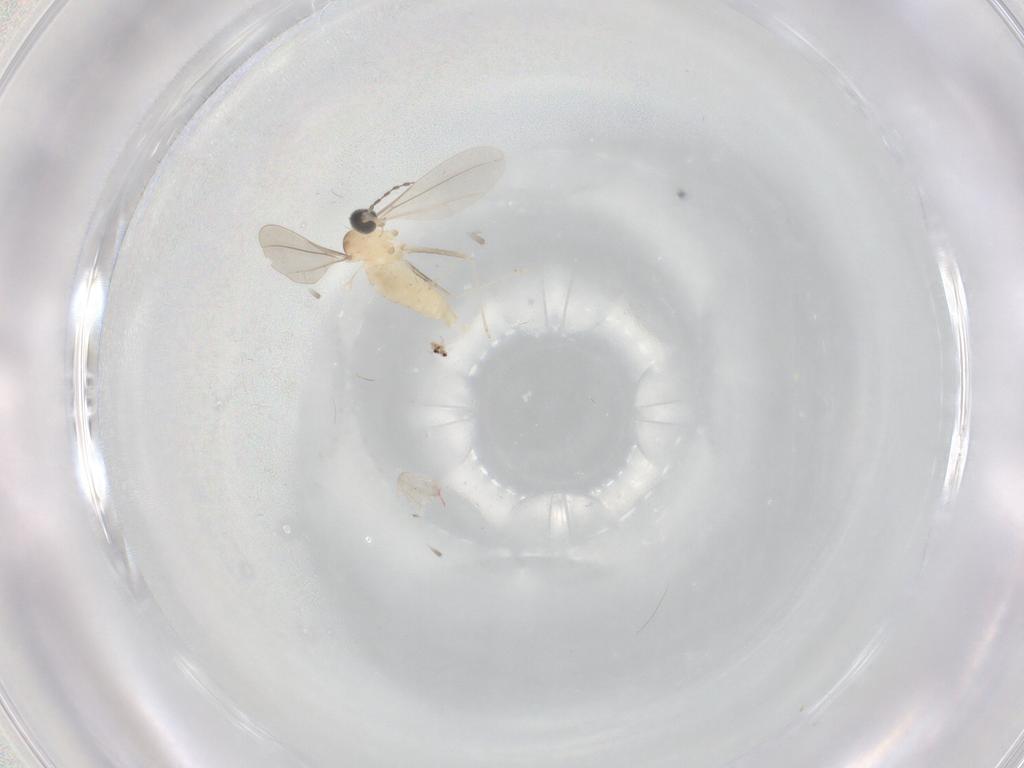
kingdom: Animalia
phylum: Arthropoda
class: Insecta
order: Diptera
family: Cecidomyiidae
